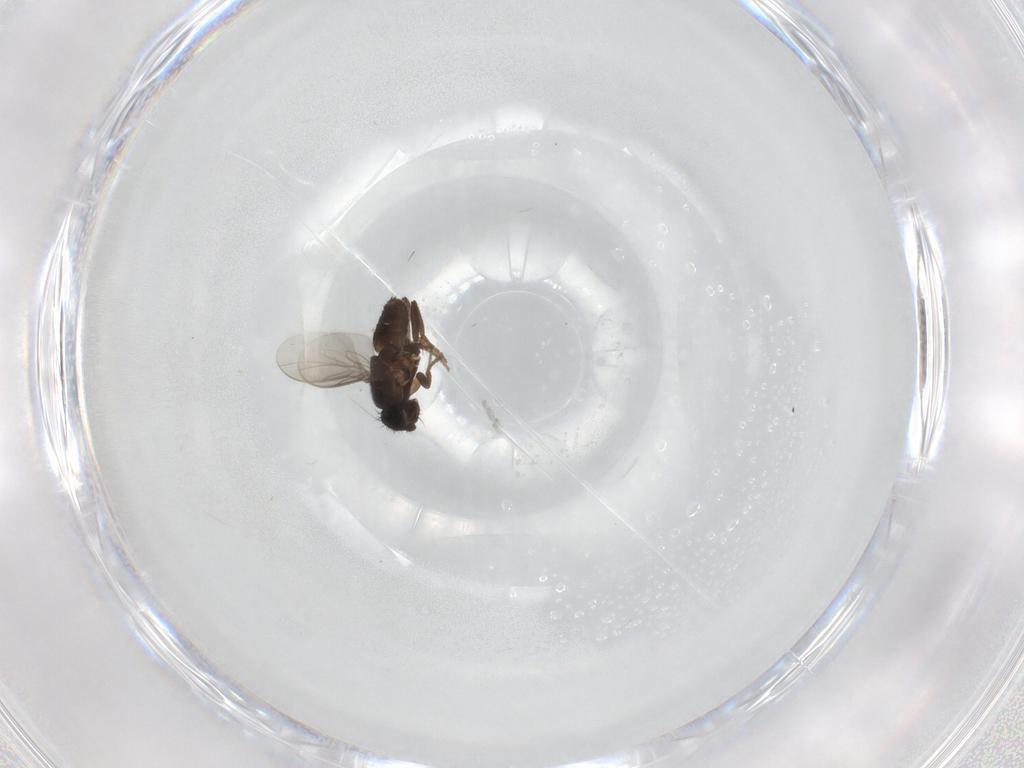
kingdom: Animalia
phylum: Arthropoda
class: Insecta
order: Diptera
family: Sphaeroceridae
